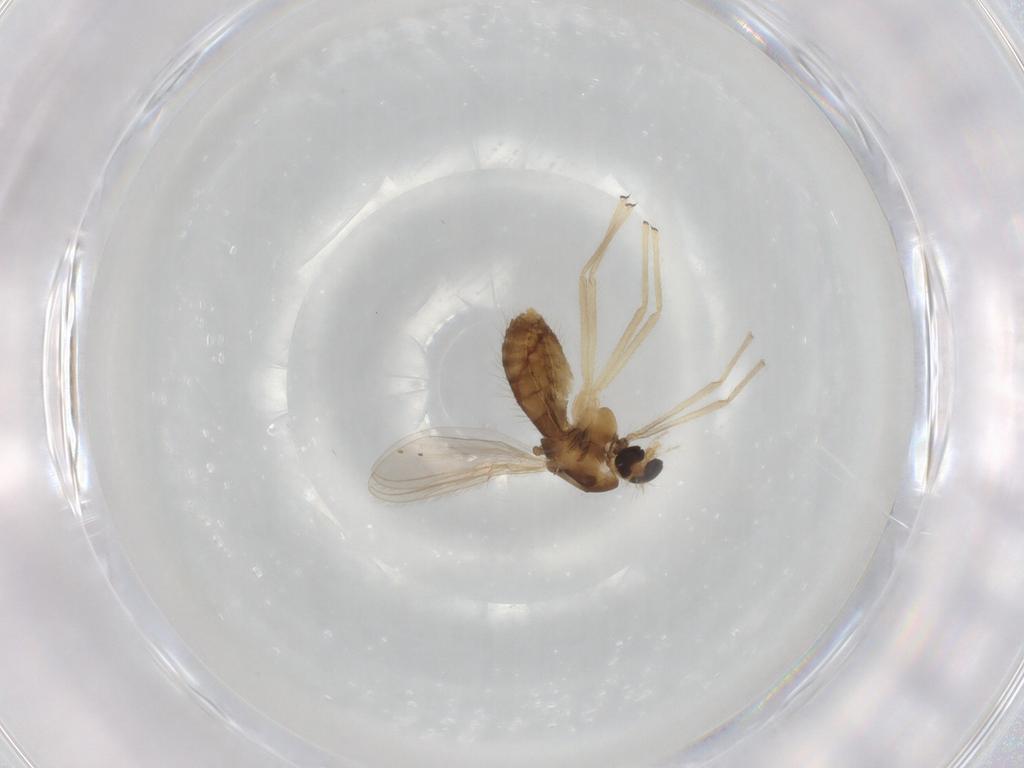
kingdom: Animalia
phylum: Arthropoda
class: Insecta
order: Diptera
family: Chironomidae
